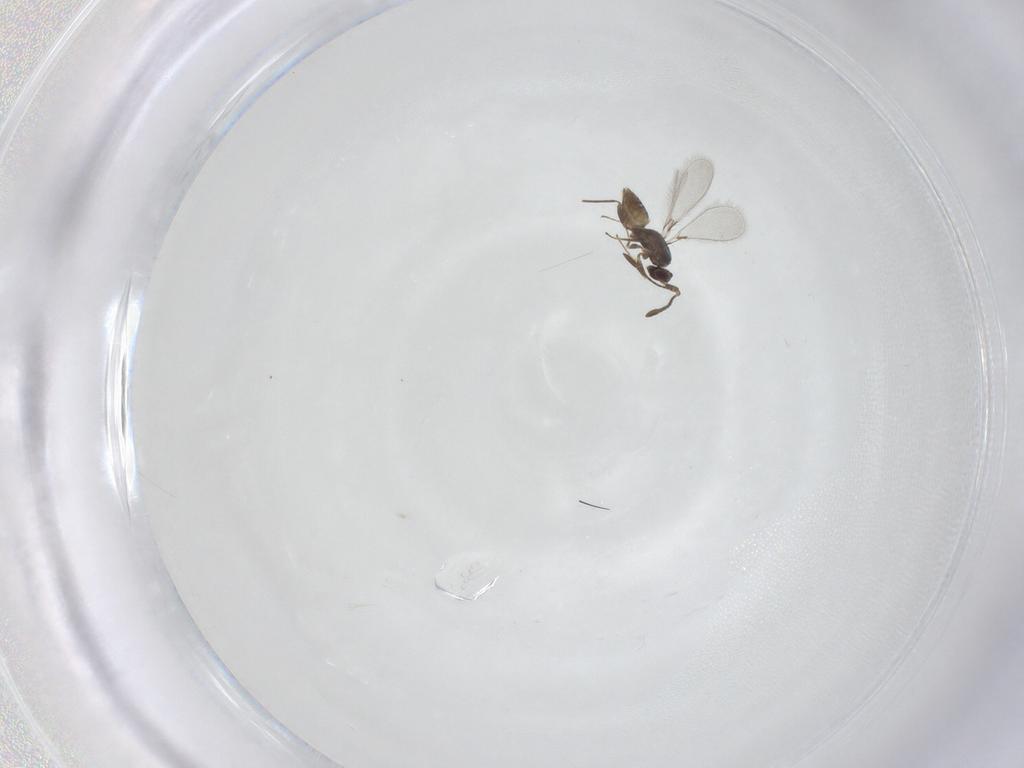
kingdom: Animalia
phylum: Arthropoda
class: Insecta
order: Hymenoptera
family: Mymaridae
